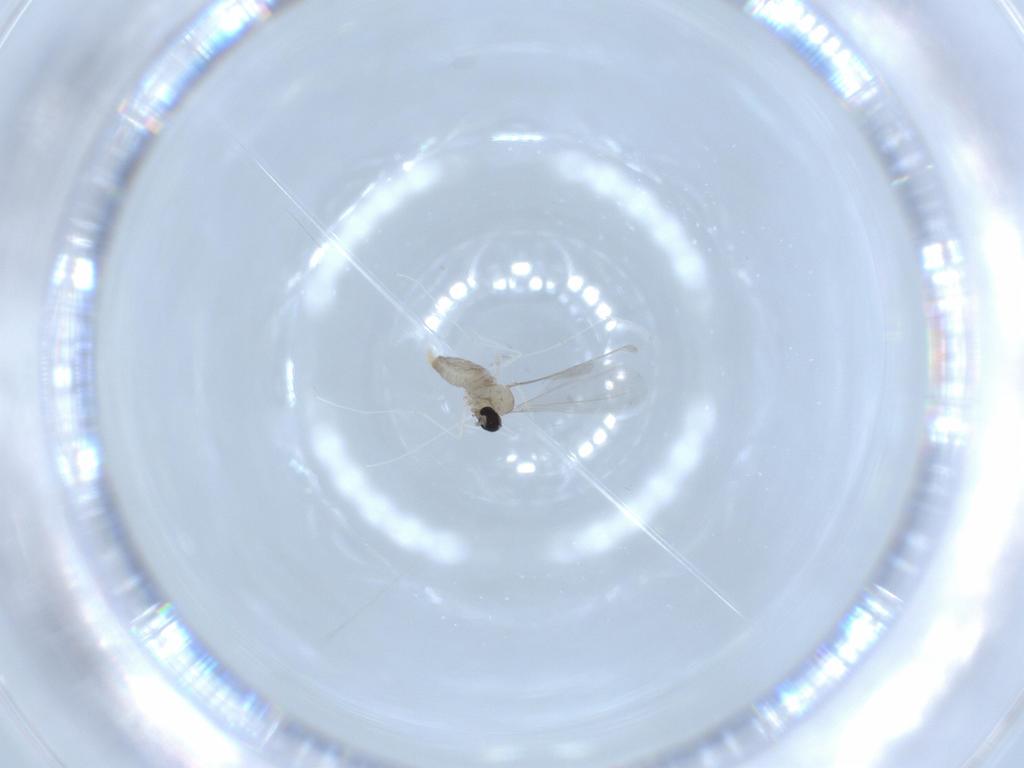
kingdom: Animalia
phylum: Arthropoda
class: Insecta
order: Diptera
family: Cecidomyiidae
